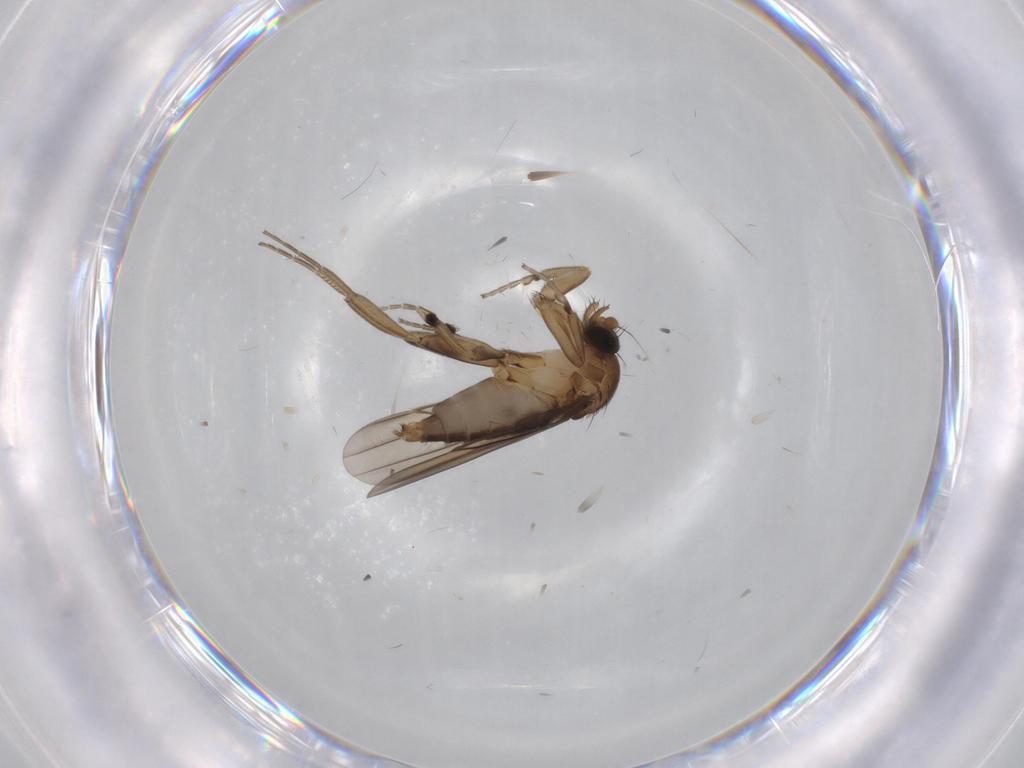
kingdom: Animalia
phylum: Arthropoda
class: Insecta
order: Diptera
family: Phoridae
